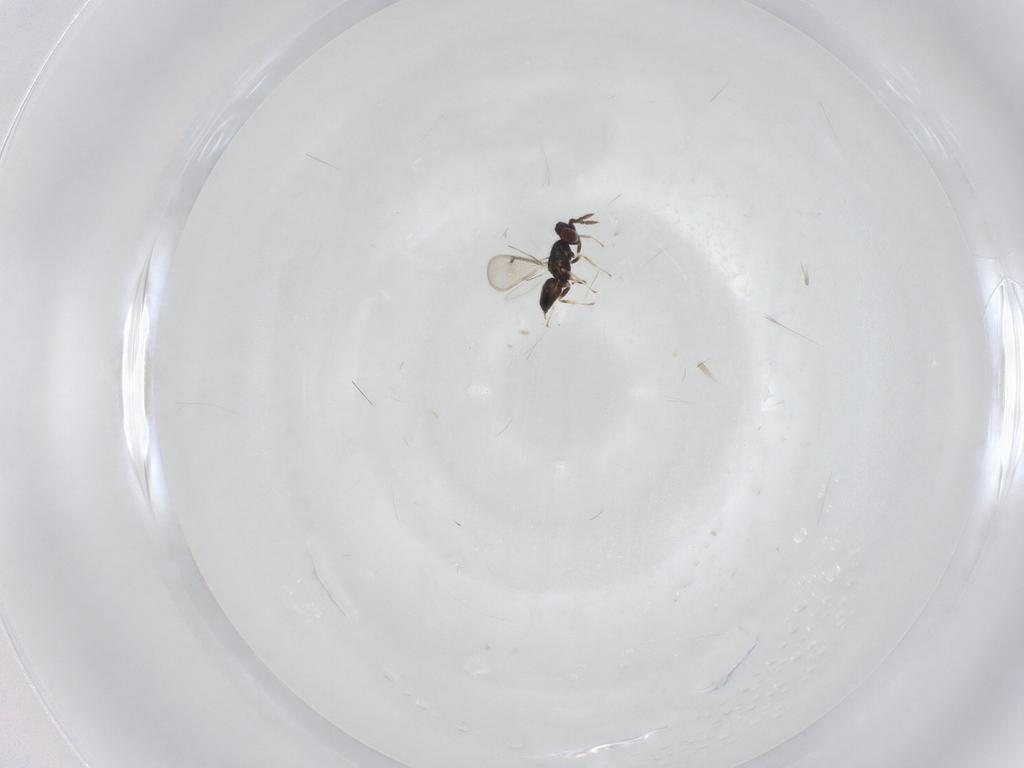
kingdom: Animalia
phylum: Arthropoda
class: Insecta
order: Hymenoptera
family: Eulophidae
